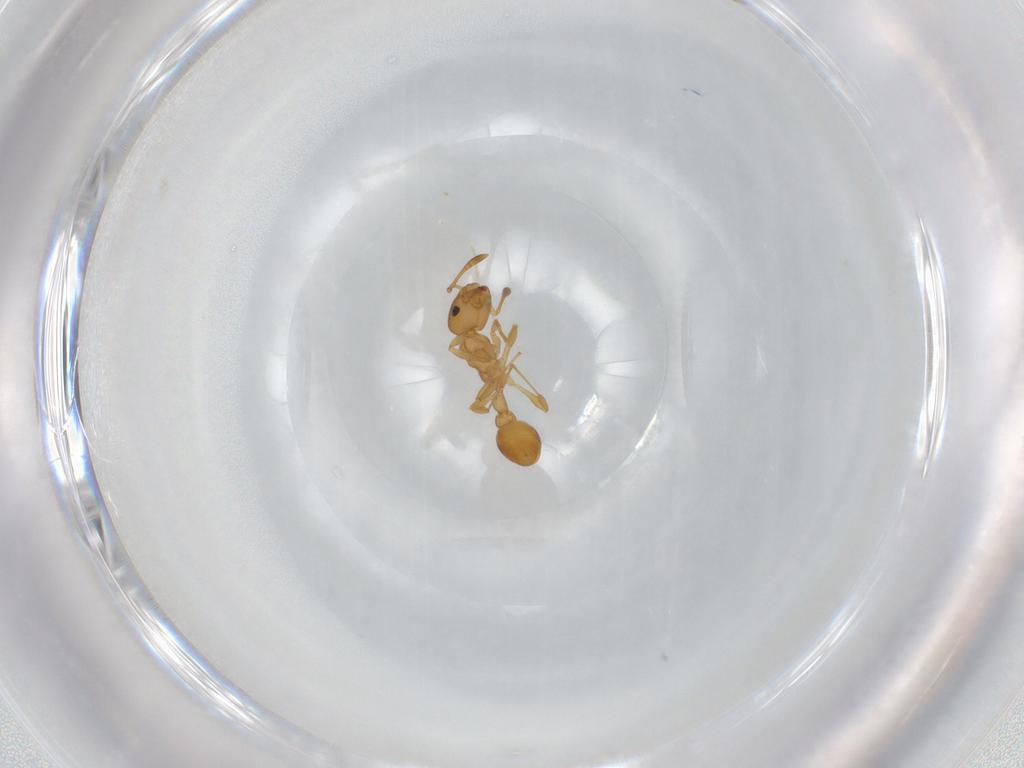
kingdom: Animalia
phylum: Arthropoda
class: Insecta
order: Hymenoptera
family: Formicidae
